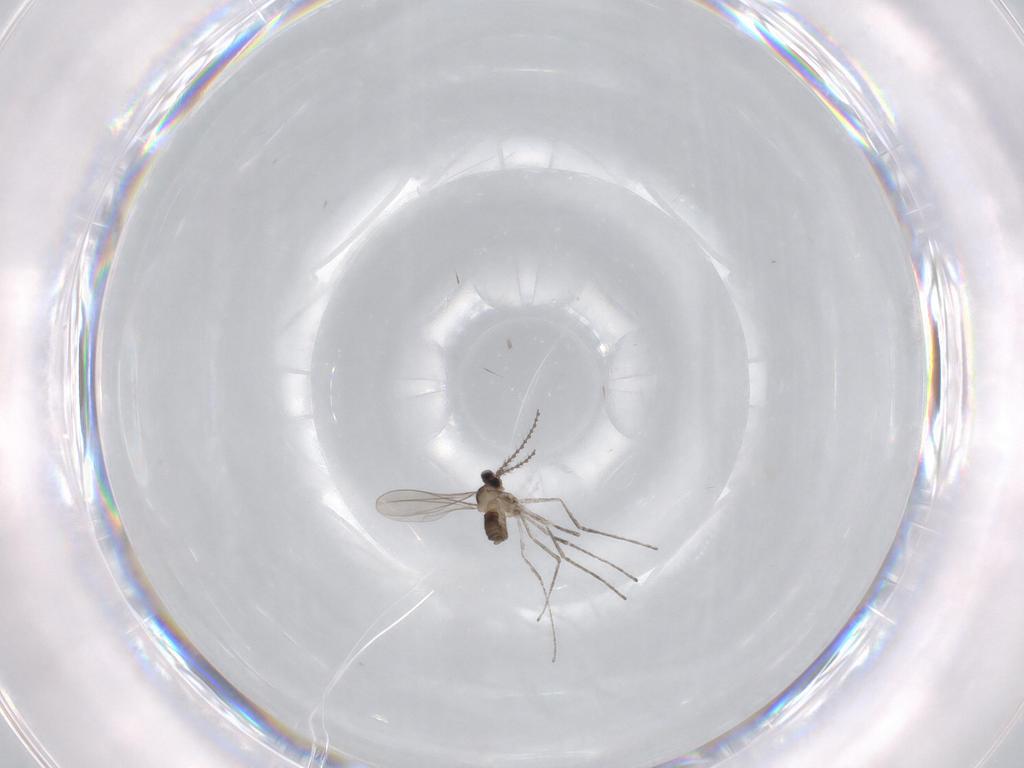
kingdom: Animalia
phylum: Arthropoda
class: Insecta
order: Diptera
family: Cecidomyiidae
